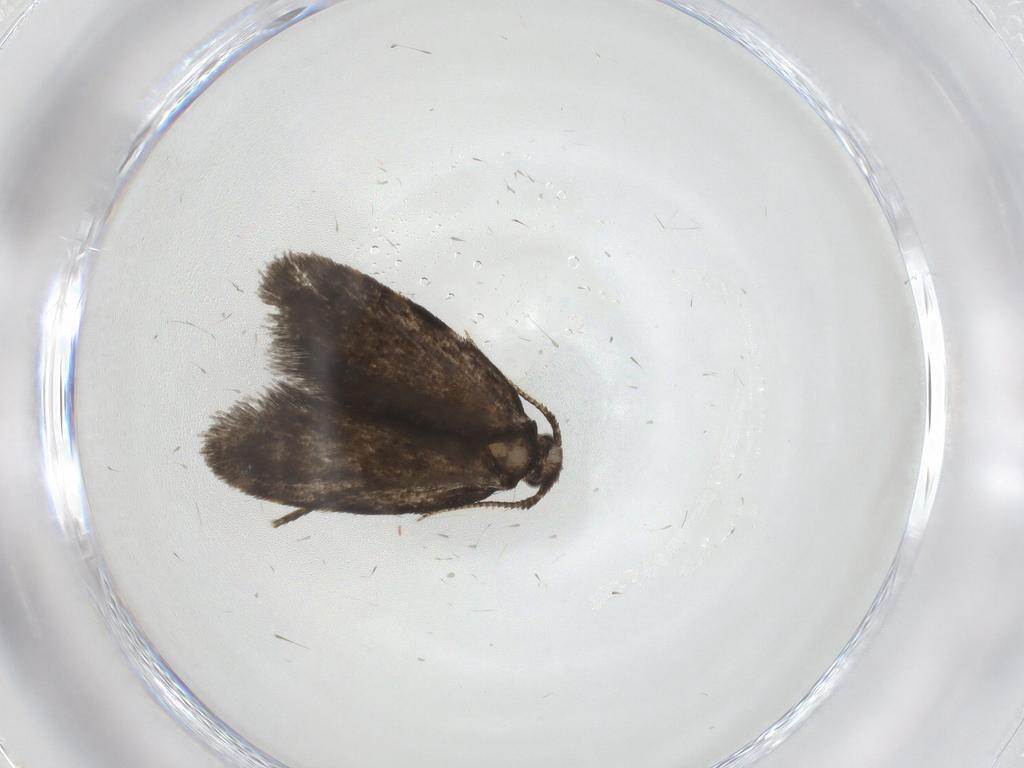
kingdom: Animalia
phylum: Arthropoda
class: Insecta
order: Lepidoptera
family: Psychidae
